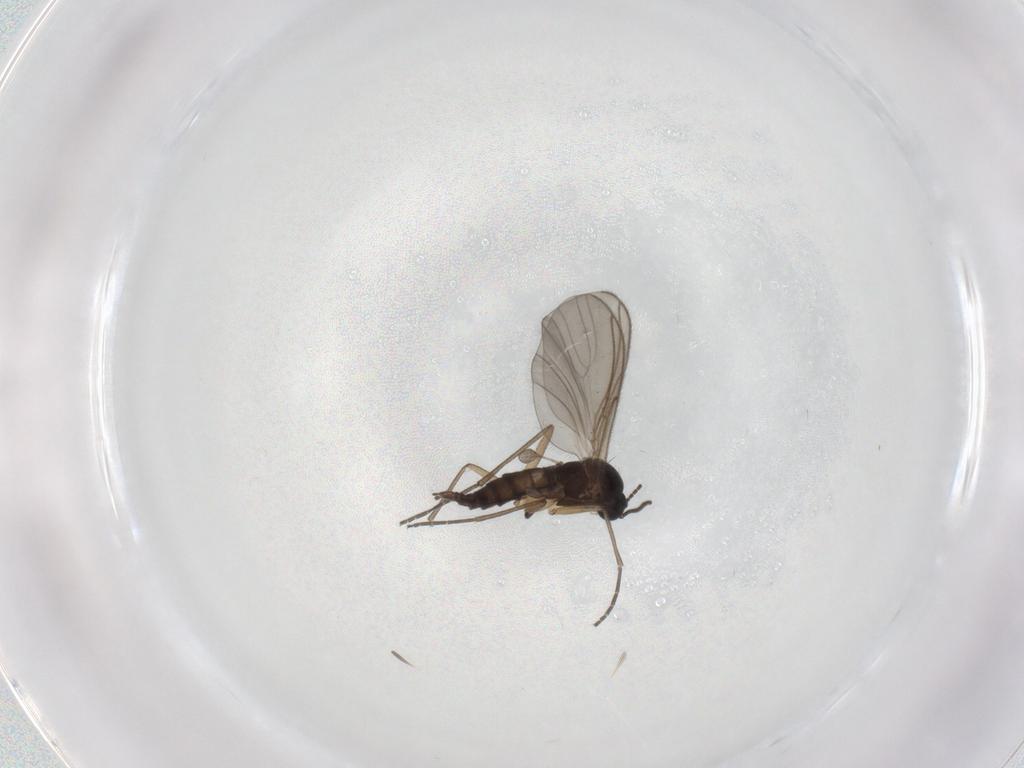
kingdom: Animalia
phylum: Arthropoda
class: Insecta
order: Diptera
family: Sciaridae
